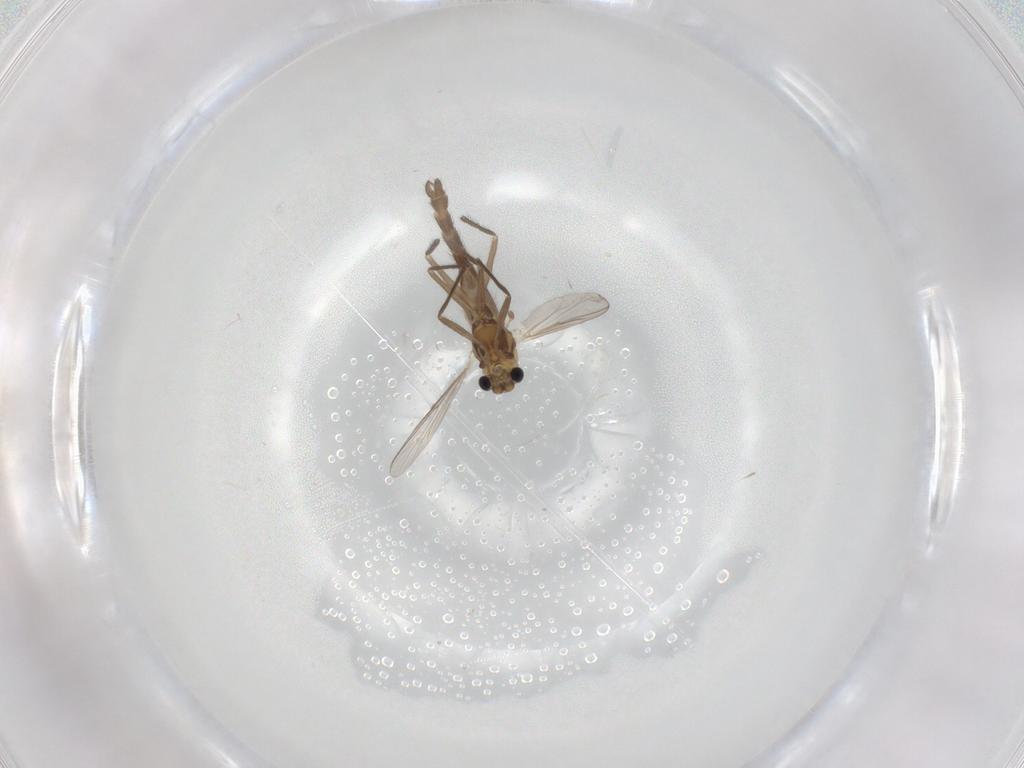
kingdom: Animalia
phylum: Arthropoda
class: Insecta
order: Diptera
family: Chironomidae
